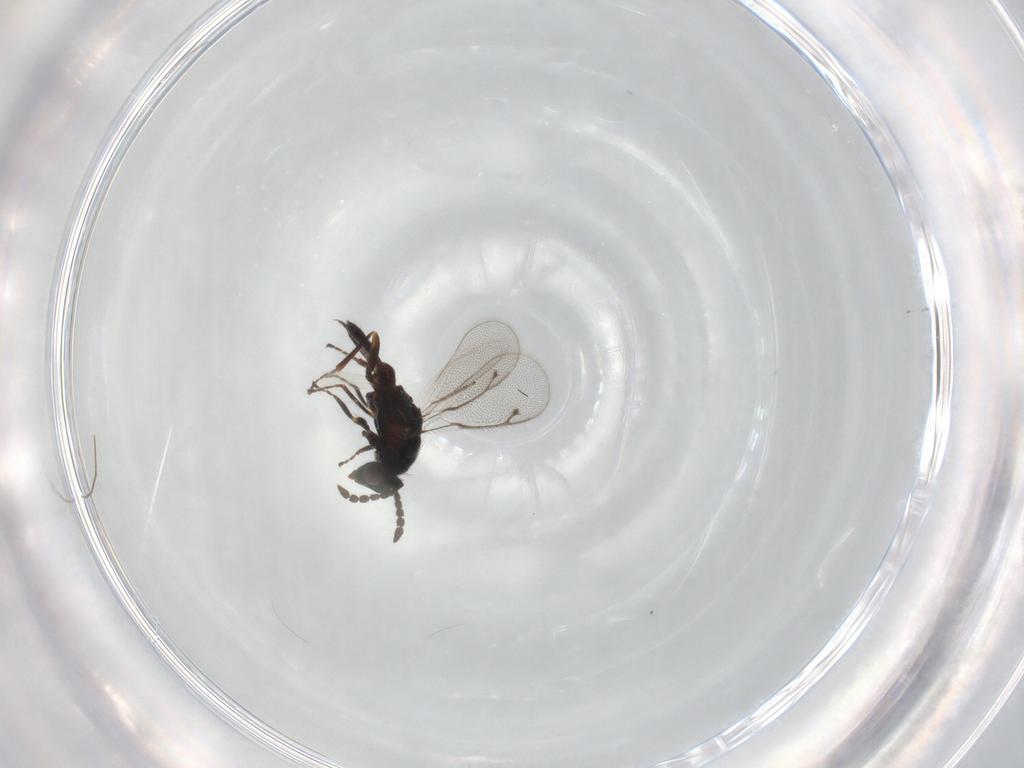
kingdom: Animalia
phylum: Arthropoda
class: Insecta
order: Hymenoptera
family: Eulophidae
